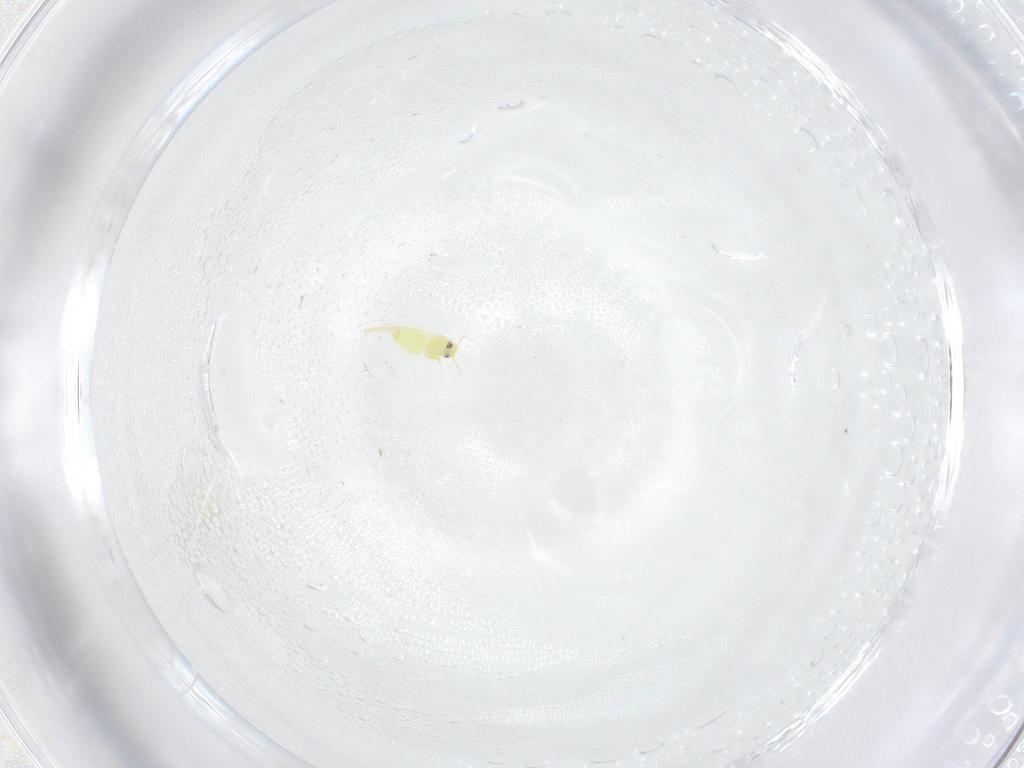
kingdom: Animalia
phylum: Arthropoda
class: Insecta
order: Hemiptera
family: Aleyrodidae
